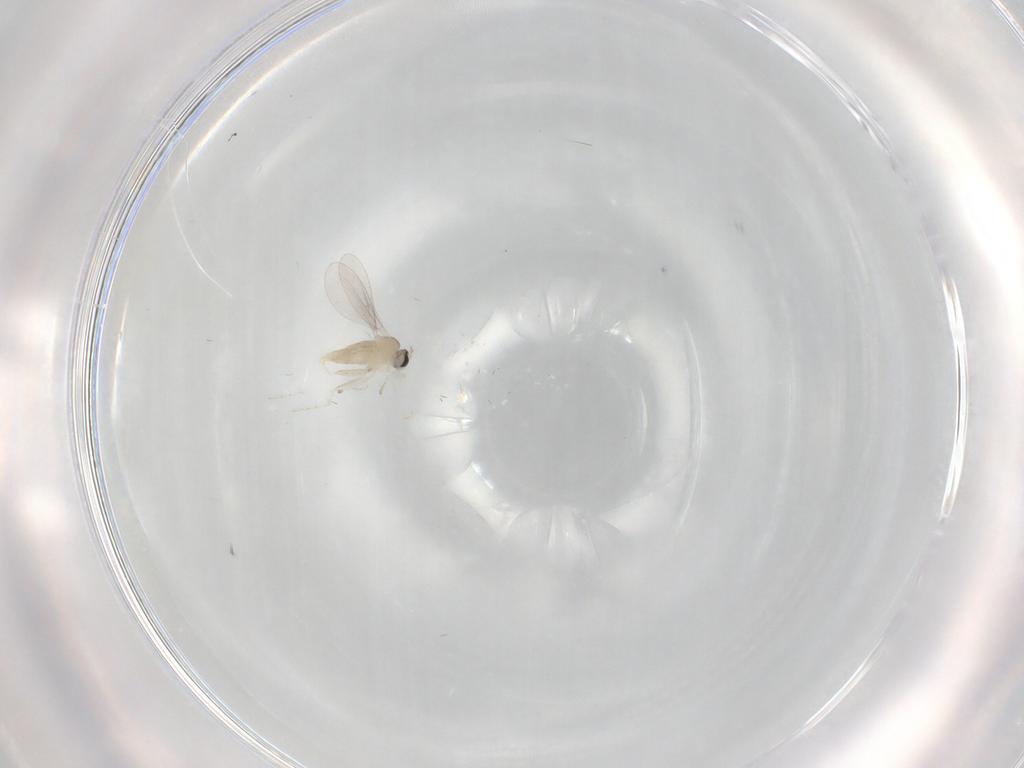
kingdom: Animalia
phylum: Arthropoda
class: Insecta
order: Diptera
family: Cecidomyiidae
